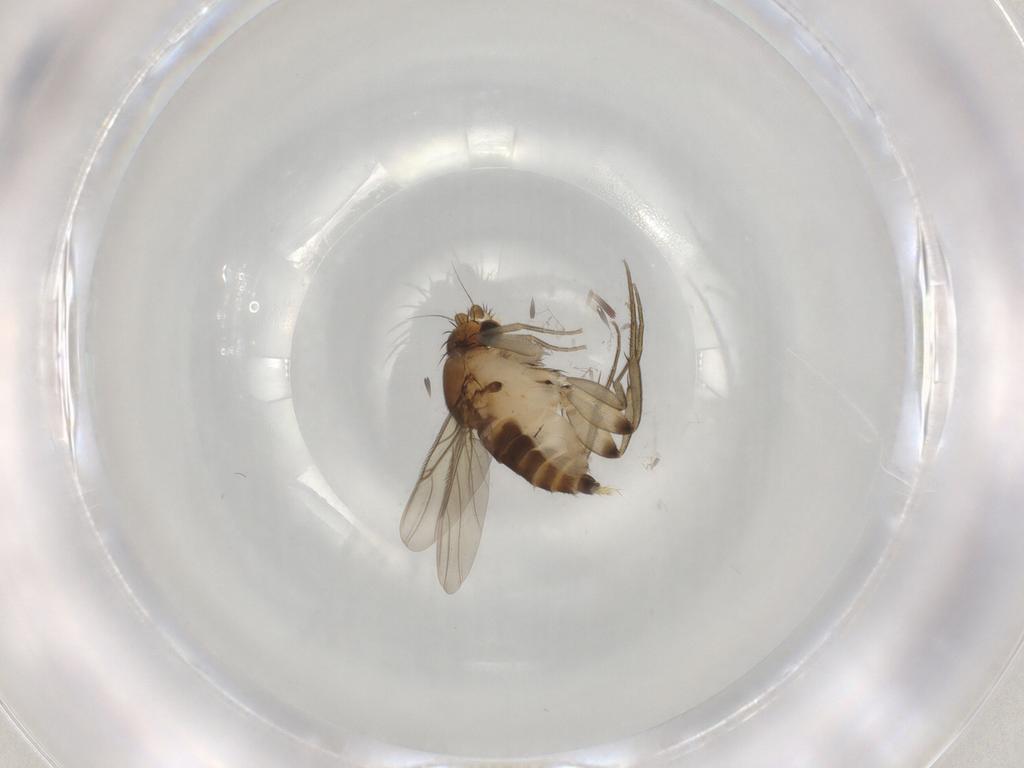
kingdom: Animalia
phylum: Arthropoda
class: Insecta
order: Diptera
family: Phoridae
